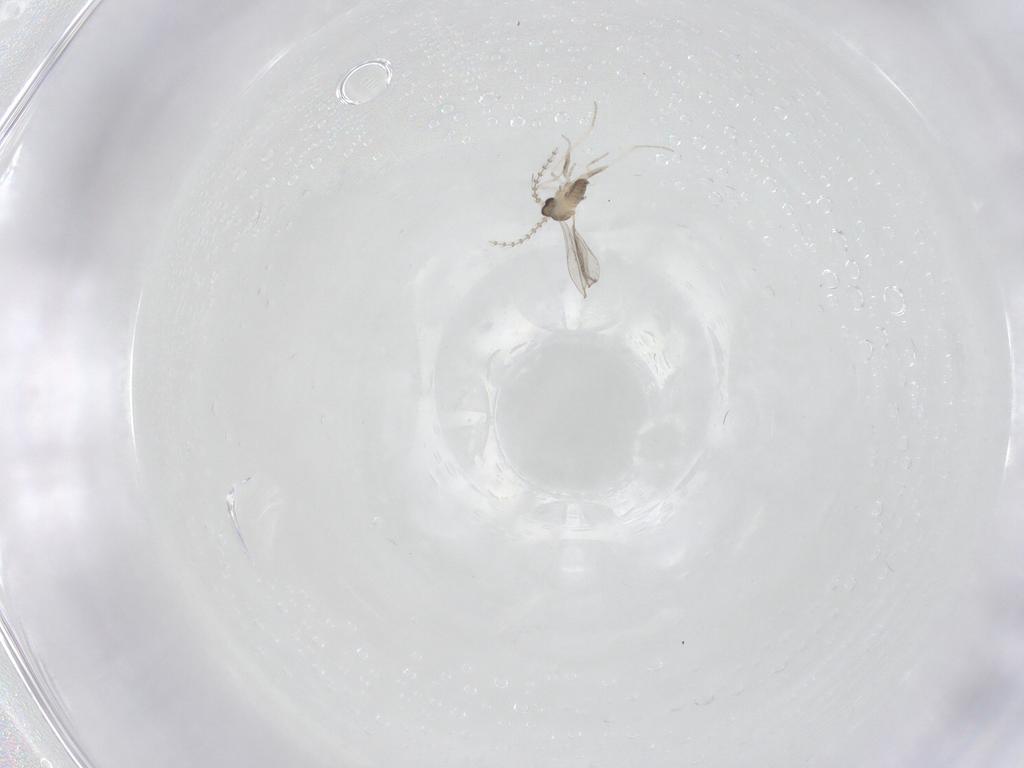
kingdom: Animalia
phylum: Arthropoda
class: Insecta
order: Diptera
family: Cecidomyiidae
